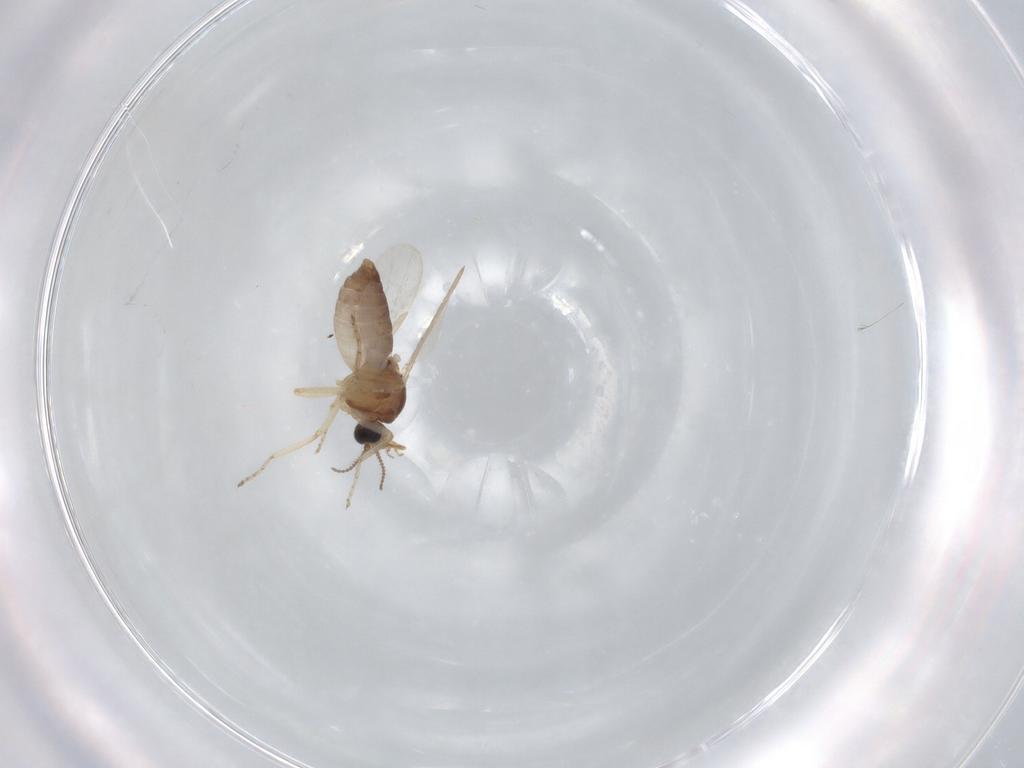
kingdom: Animalia
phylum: Arthropoda
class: Insecta
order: Diptera
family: Ceratopogonidae
